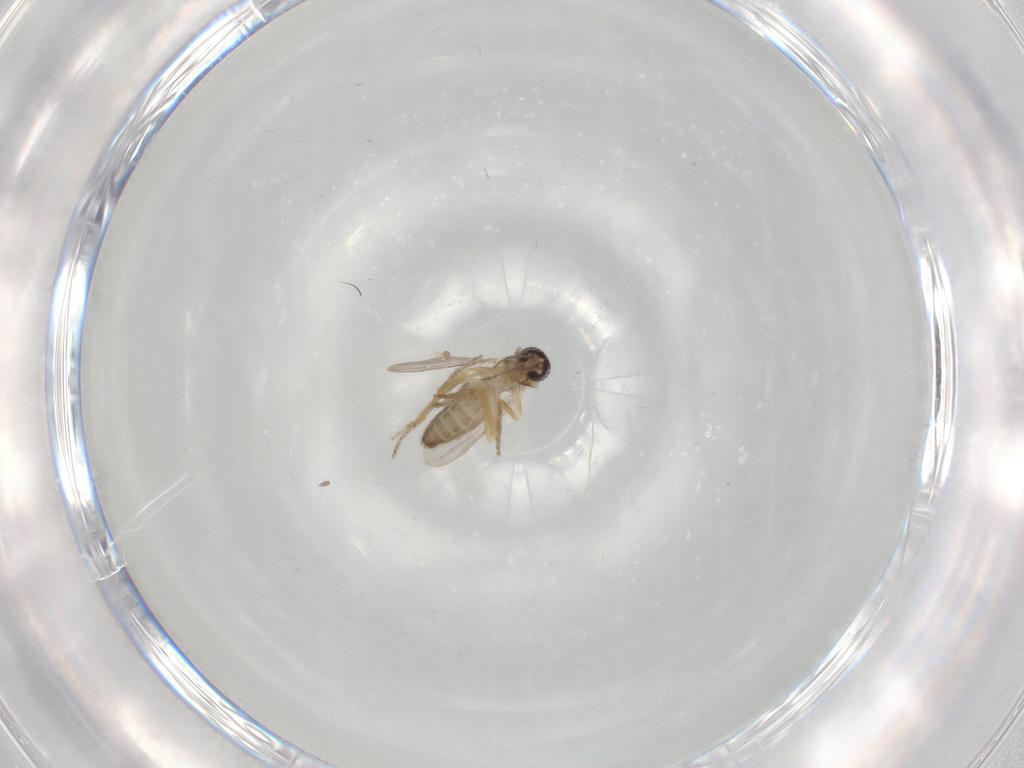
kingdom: Animalia
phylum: Arthropoda
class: Insecta
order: Diptera
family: Ceratopogonidae
